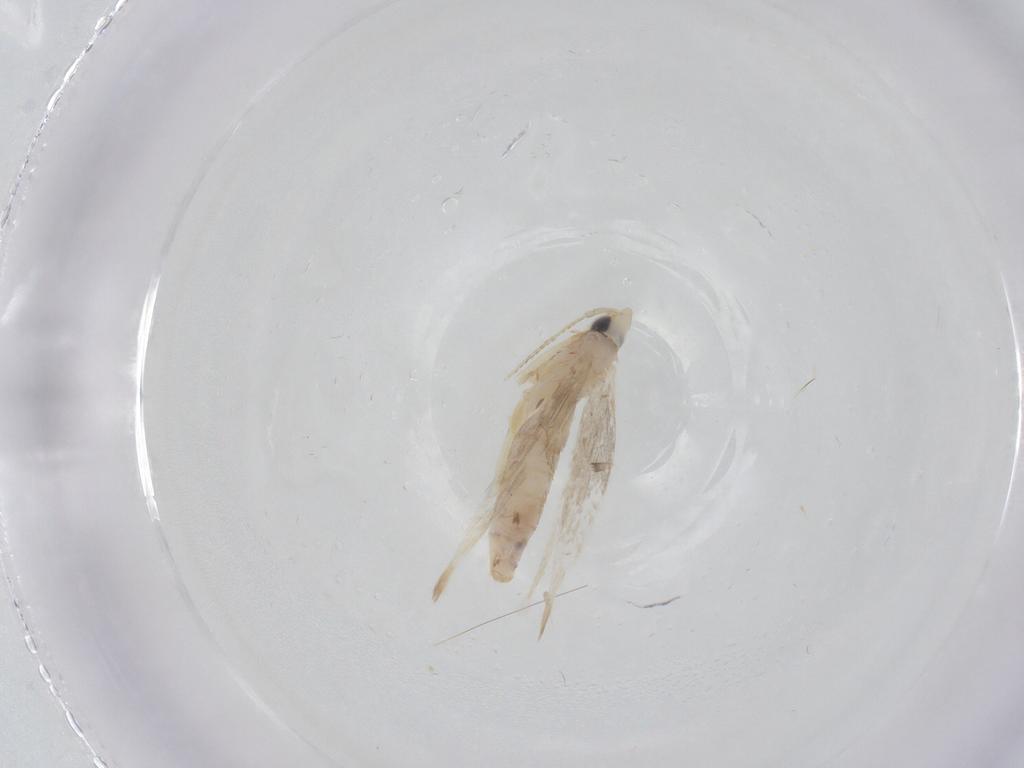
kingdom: Animalia
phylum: Arthropoda
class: Insecta
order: Lepidoptera
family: Tineidae
